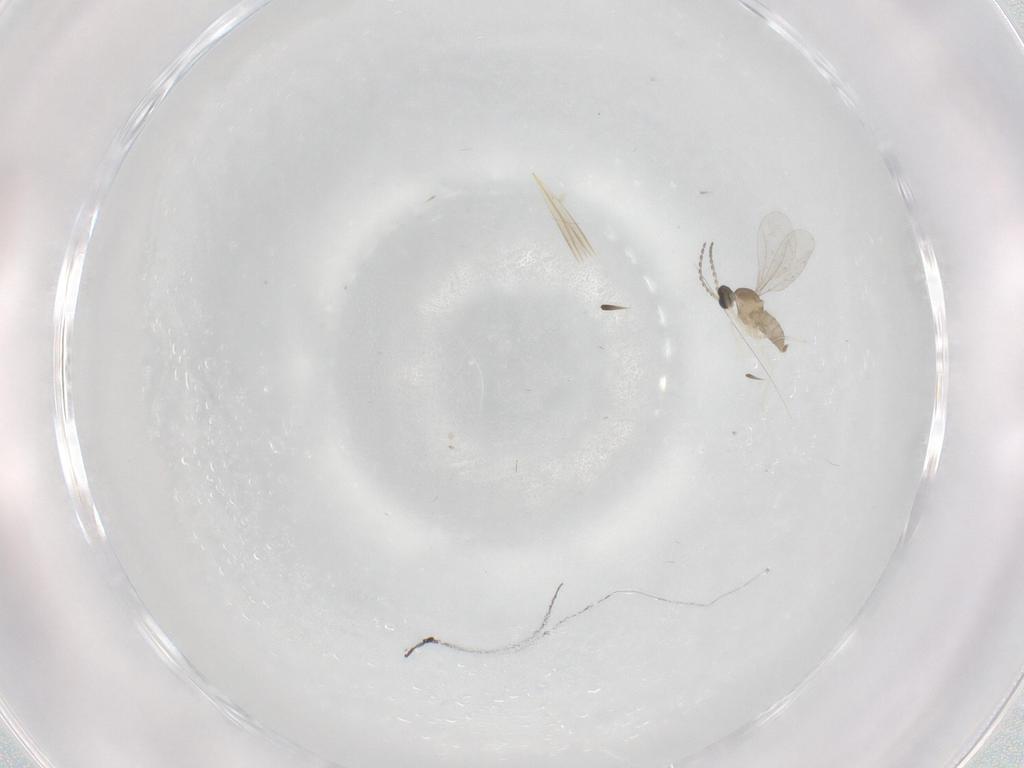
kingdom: Animalia
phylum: Arthropoda
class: Insecta
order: Diptera
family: Cecidomyiidae
